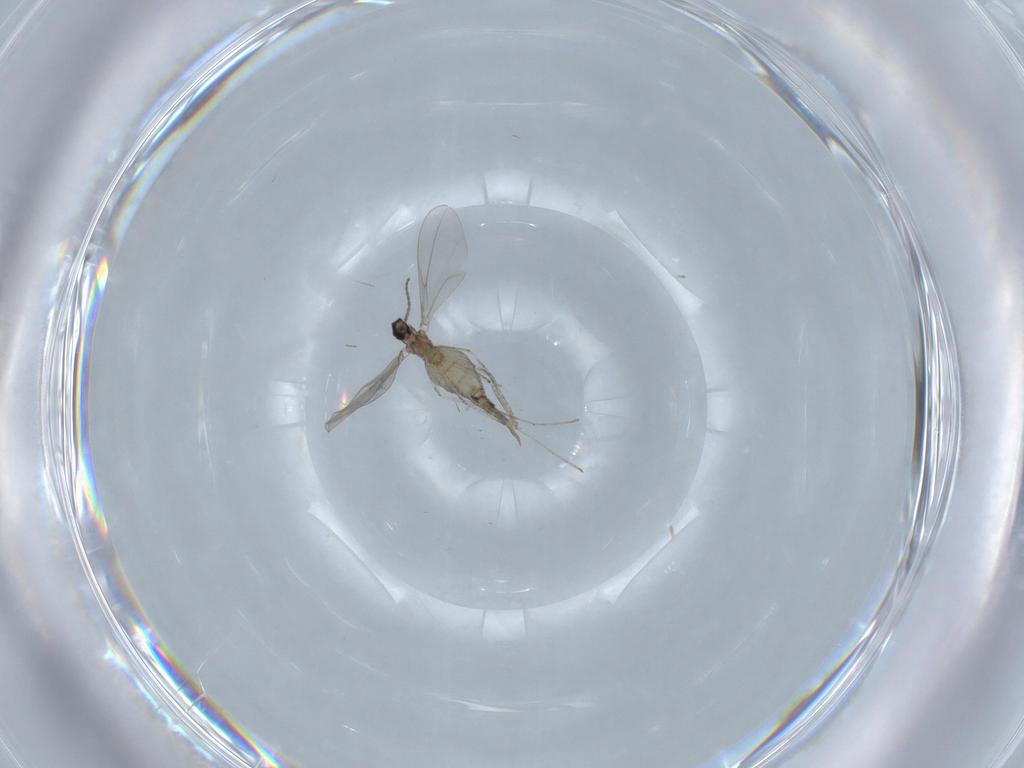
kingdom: Animalia
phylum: Arthropoda
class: Insecta
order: Diptera
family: Cecidomyiidae
